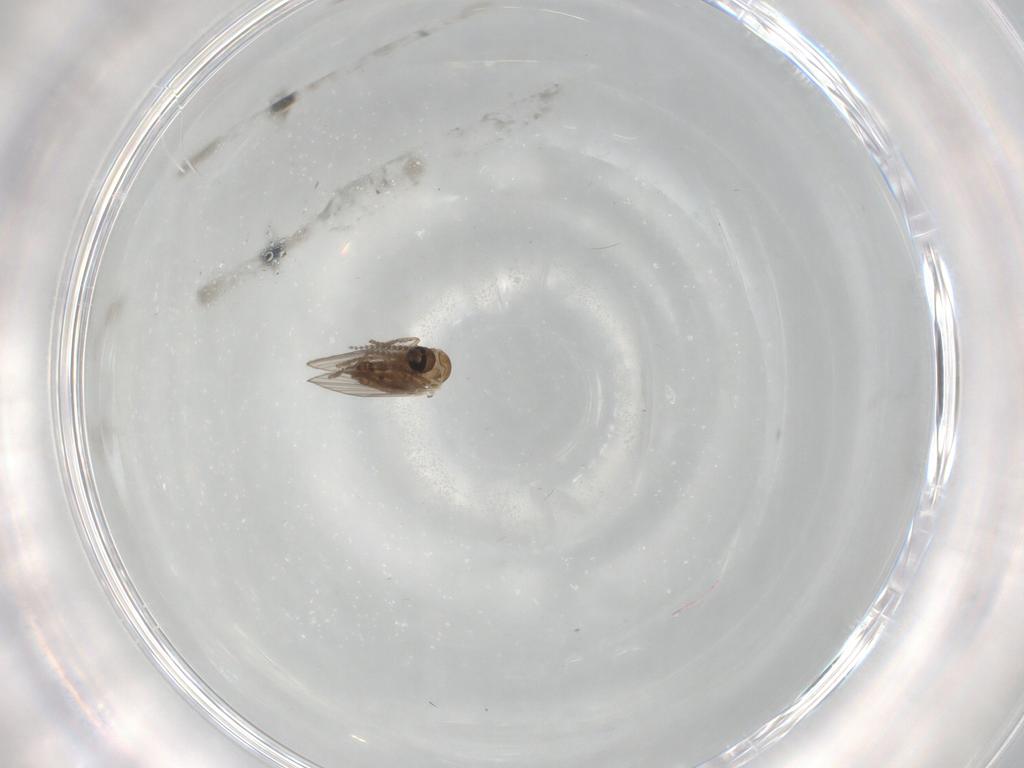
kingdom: Animalia
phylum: Arthropoda
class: Insecta
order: Diptera
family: Psychodidae
